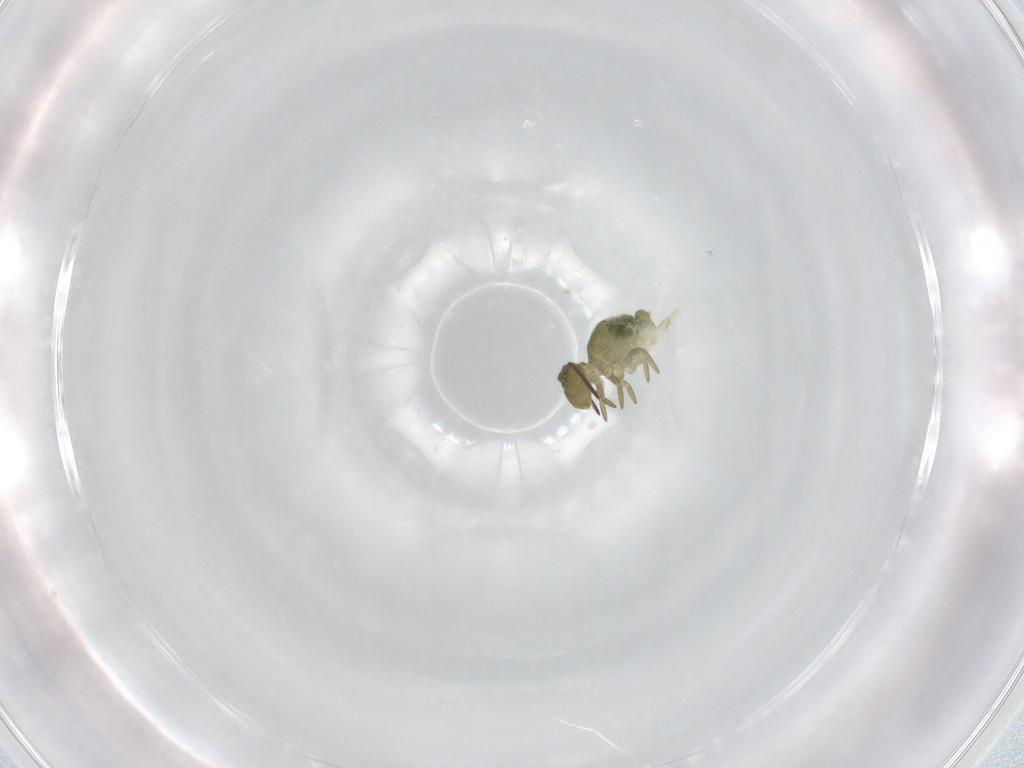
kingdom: Animalia
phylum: Arthropoda
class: Collembola
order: Symphypleona
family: Sminthuridae
